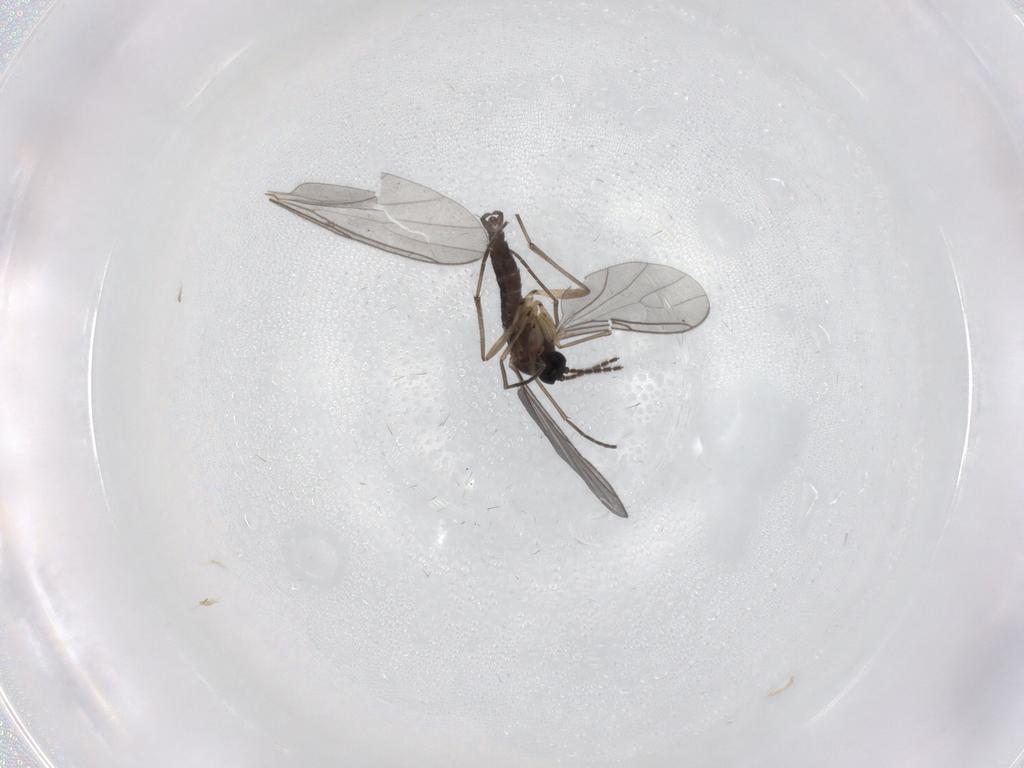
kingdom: Animalia
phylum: Arthropoda
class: Insecta
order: Diptera
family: Sciaridae
